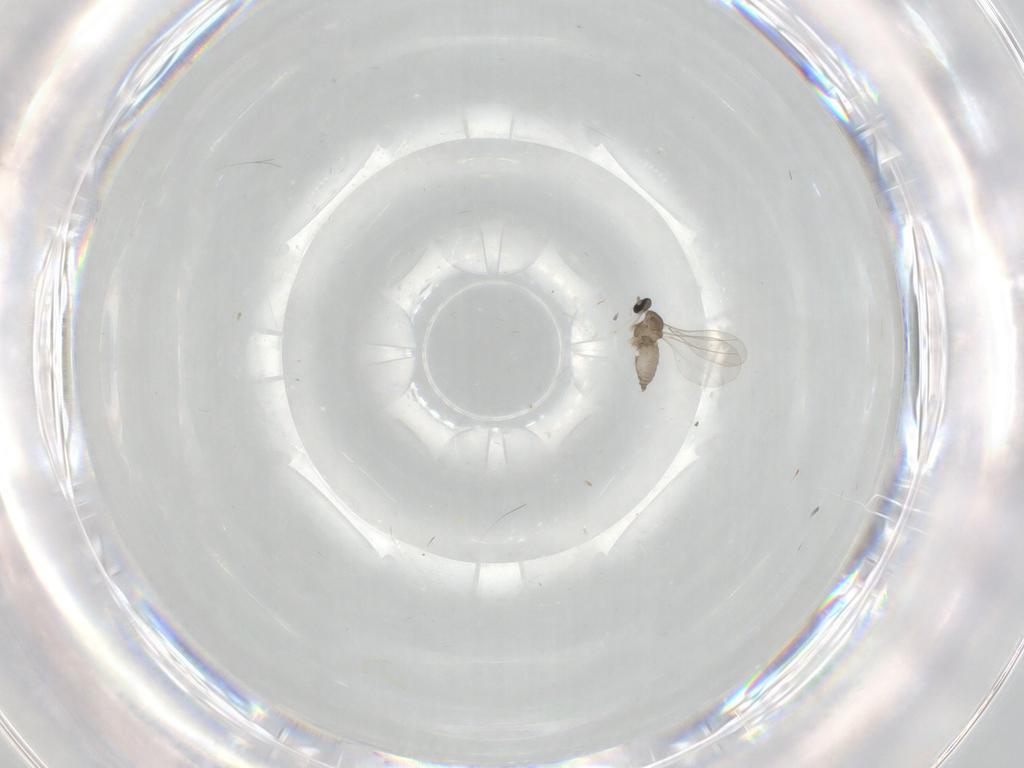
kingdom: Animalia
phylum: Arthropoda
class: Insecta
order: Diptera
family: Cecidomyiidae
